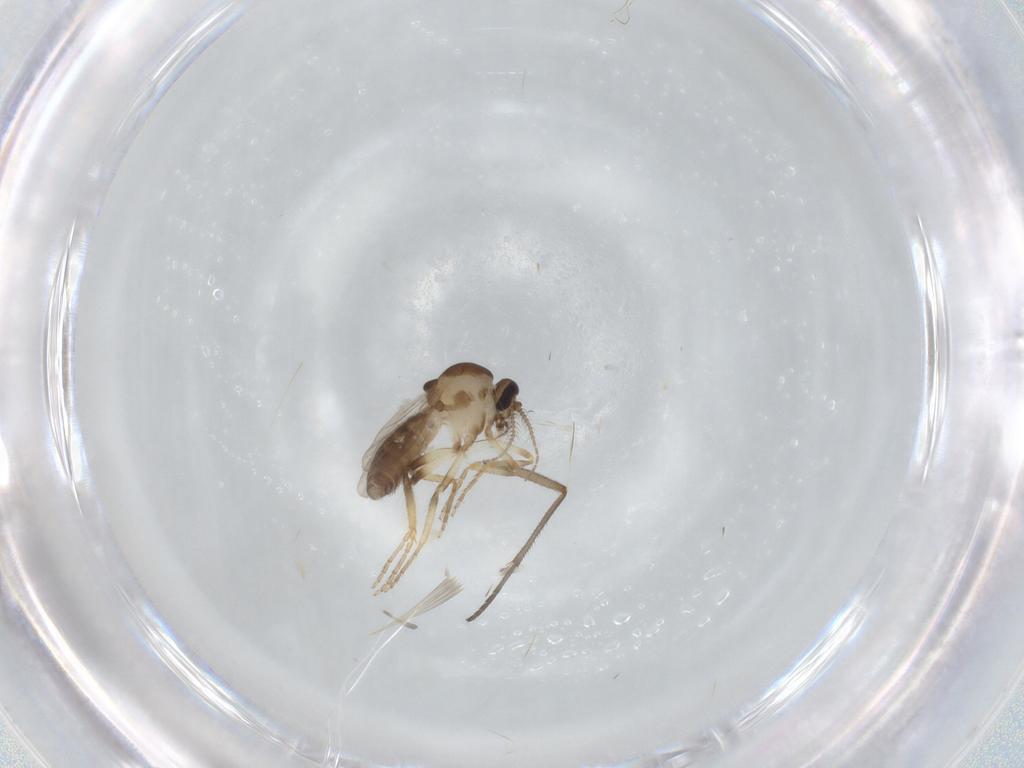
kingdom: Animalia
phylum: Arthropoda
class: Insecta
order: Diptera
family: Ceratopogonidae
